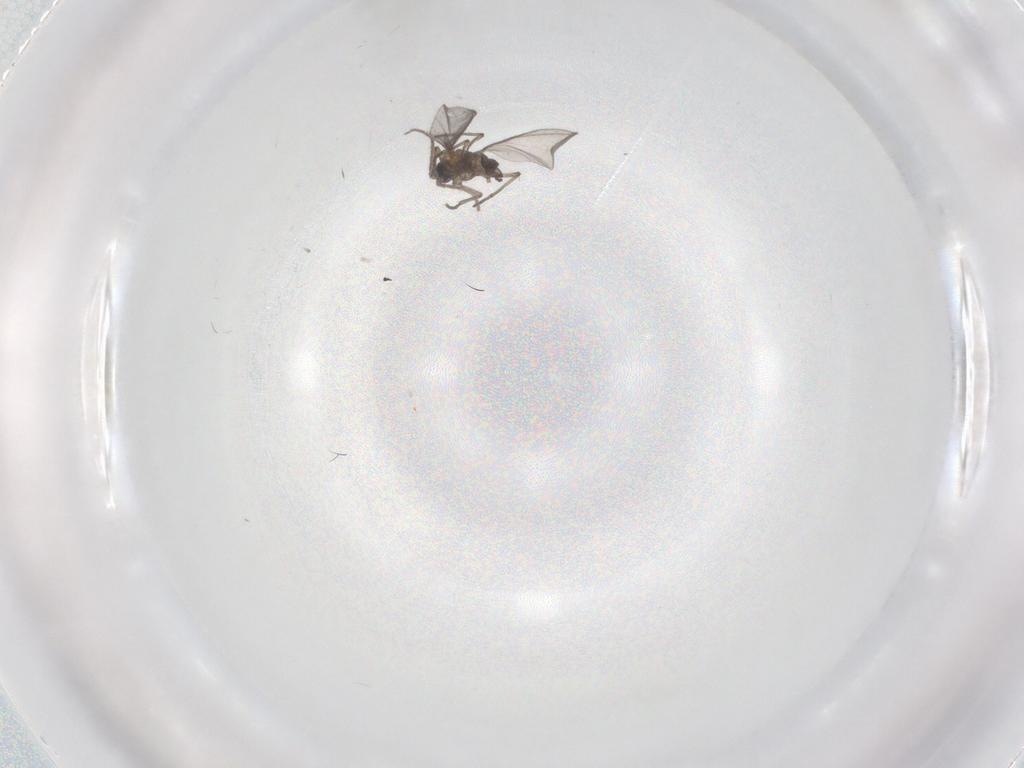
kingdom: Animalia
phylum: Arthropoda
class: Insecta
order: Diptera
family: Sciaridae
